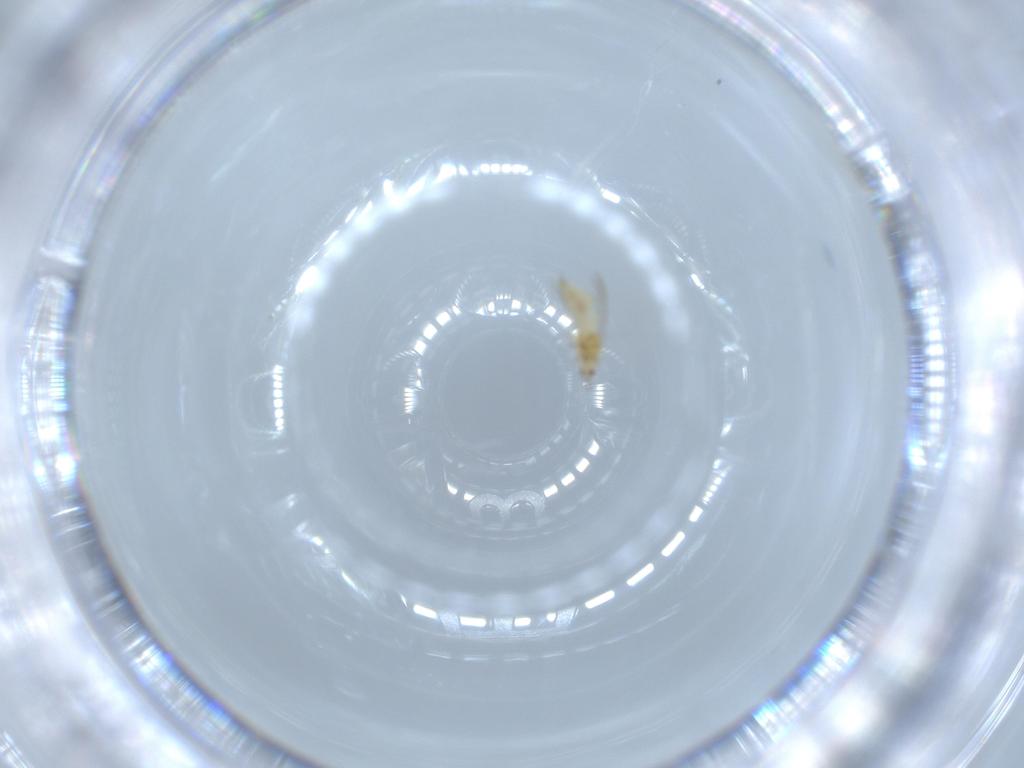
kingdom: Animalia
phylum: Arthropoda
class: Insecta
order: Thysanoptera
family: Thripidae
